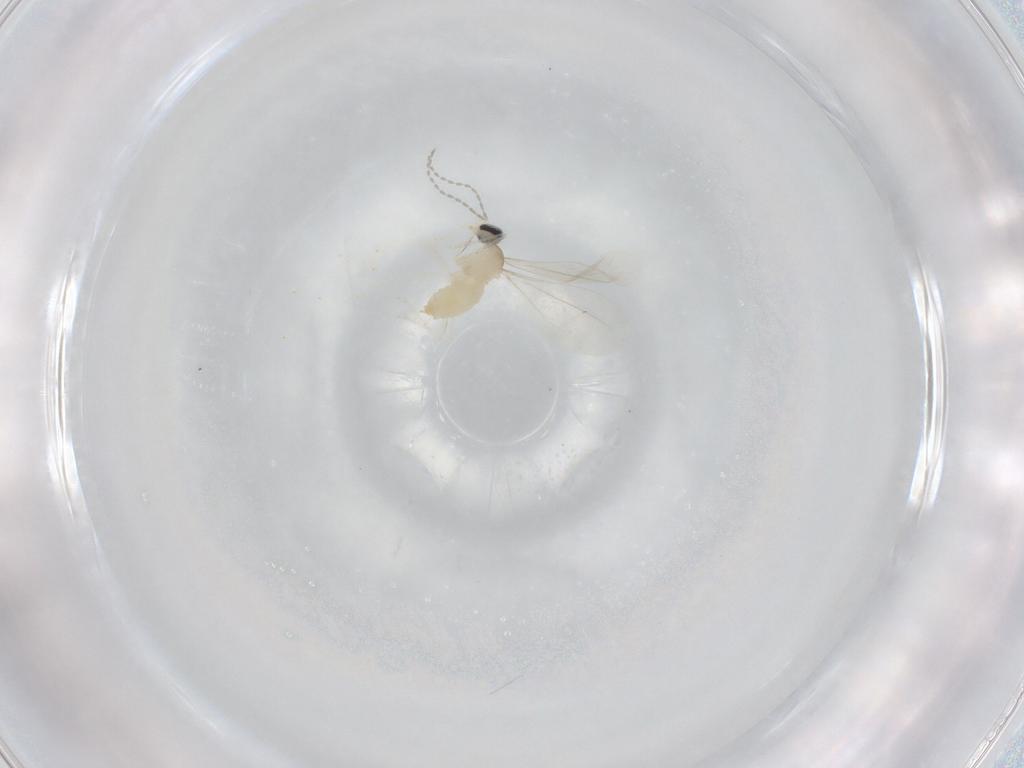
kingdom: Animalia
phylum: Arthropoda
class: Insecta
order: Diptera
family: Cecidomyiidae
